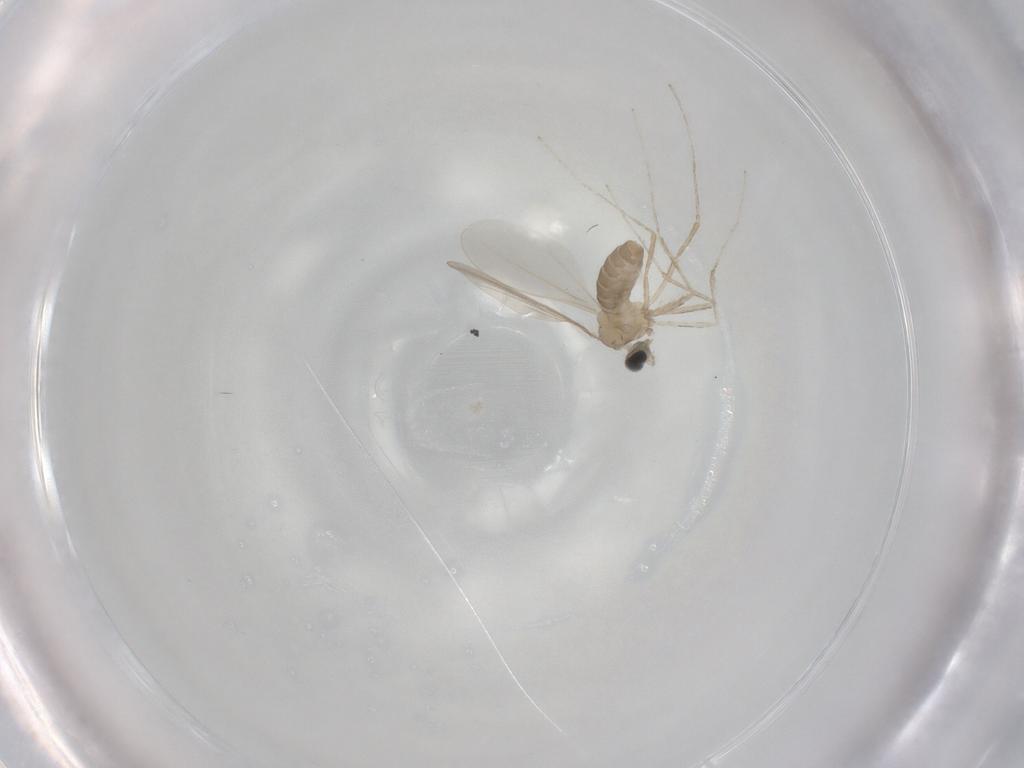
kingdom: Animalia
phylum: Arthropoda
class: Insecta
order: Diptera
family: Cecidomyiidae
